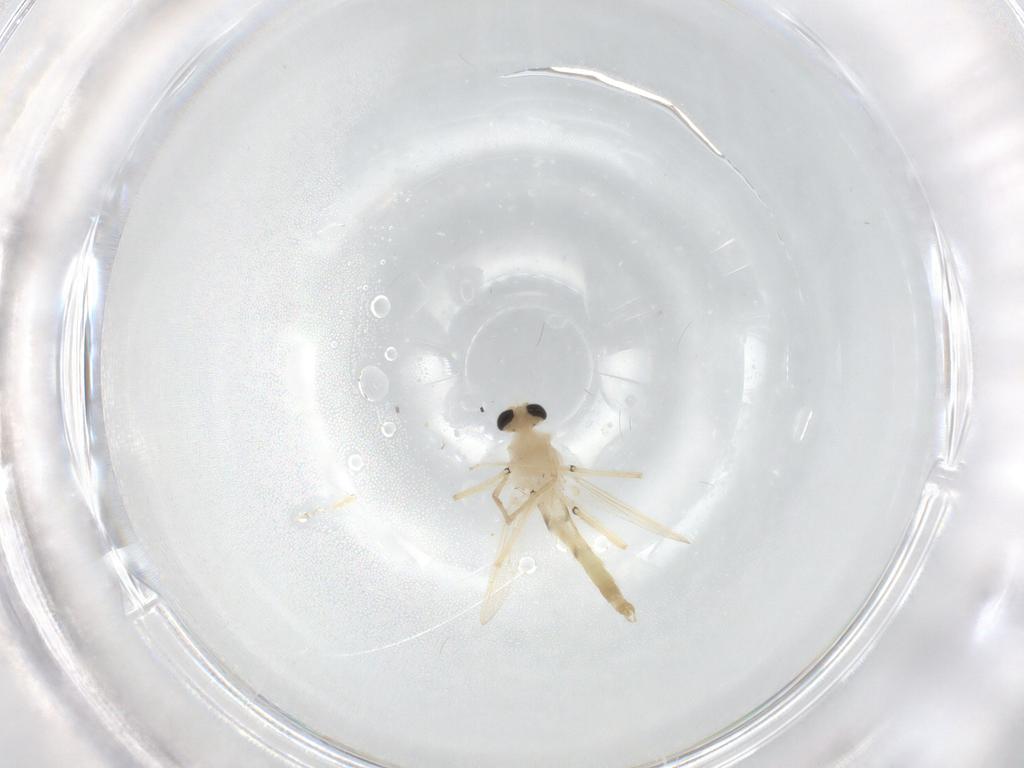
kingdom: Animalia
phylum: Arthropoda
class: Insecta
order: Diptera
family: Chironomidae
